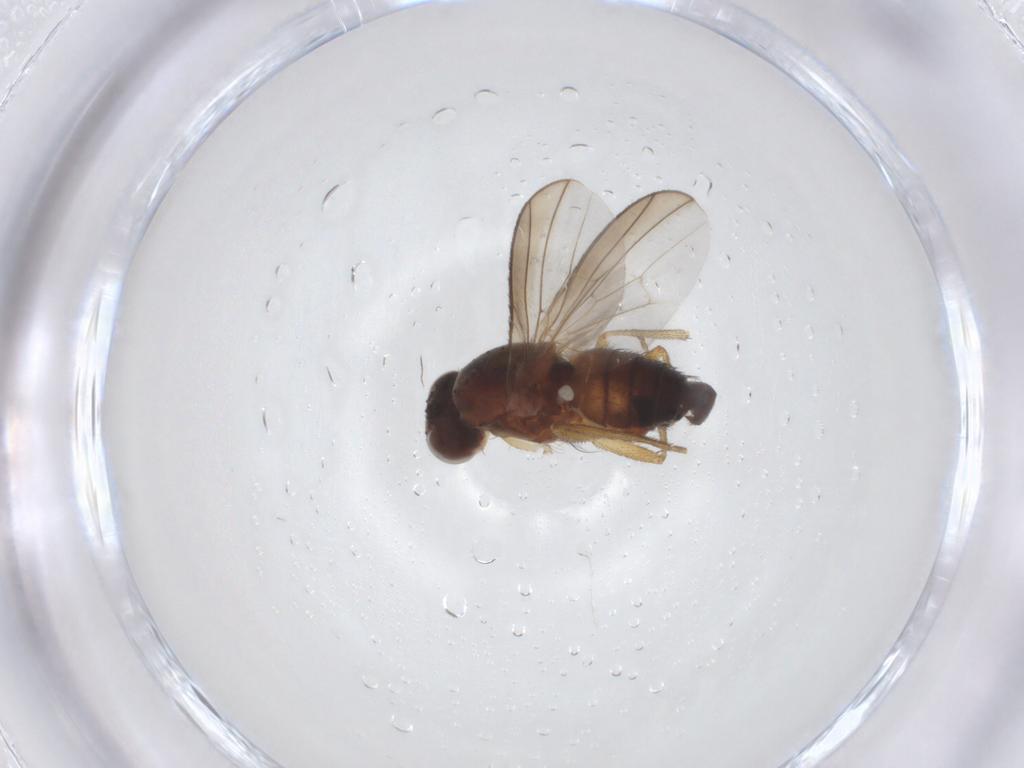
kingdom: Animalia
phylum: Arthropoda
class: Insecta
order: Diptera
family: Heleomyzidae
